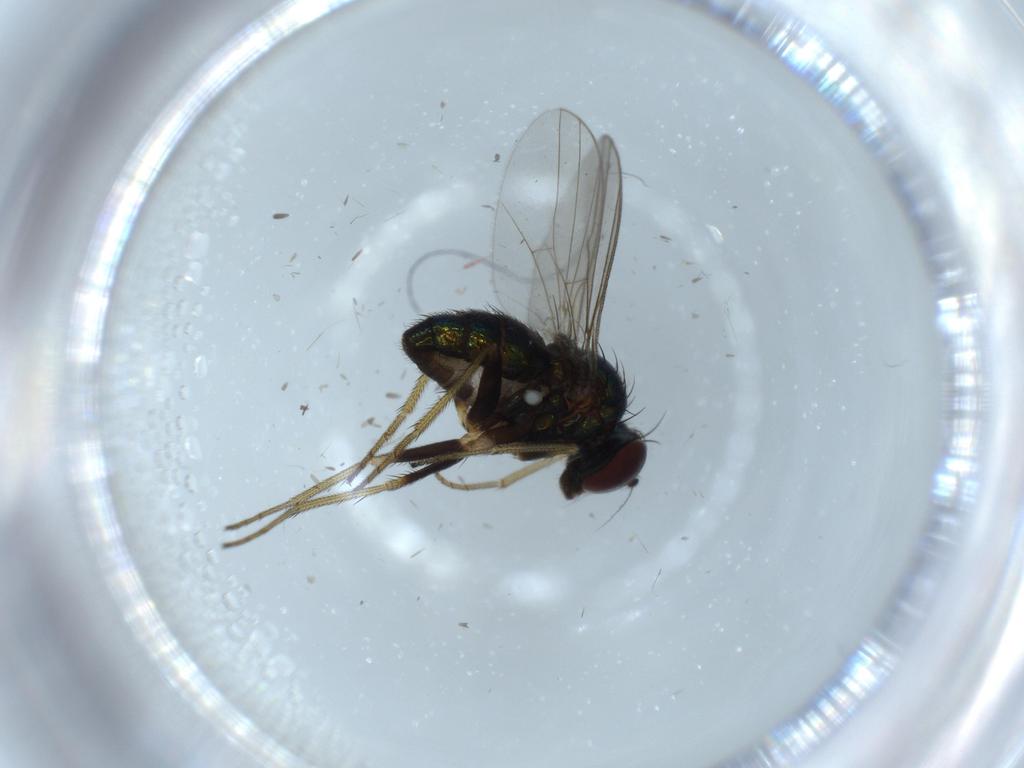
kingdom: Animalia
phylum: Arthropoda
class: Insecta
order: Diptera
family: Dolichopodidae
